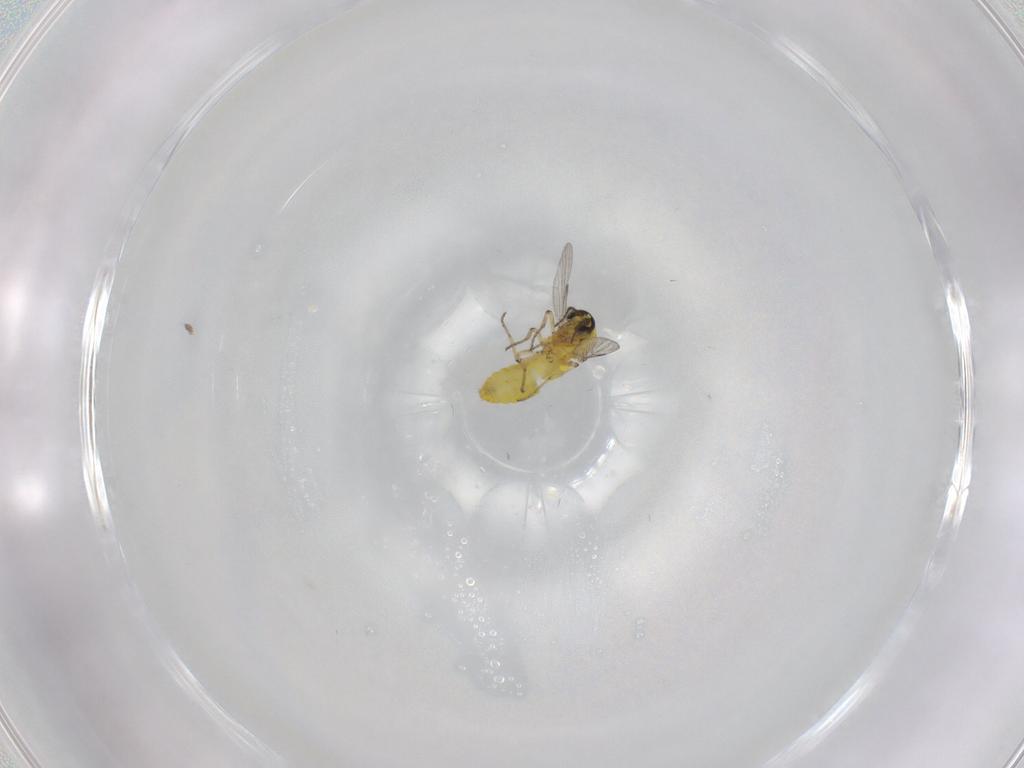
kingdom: Animalia
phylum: Arthropoda
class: Insecta
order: Diptera
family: Ceratopogonidae
